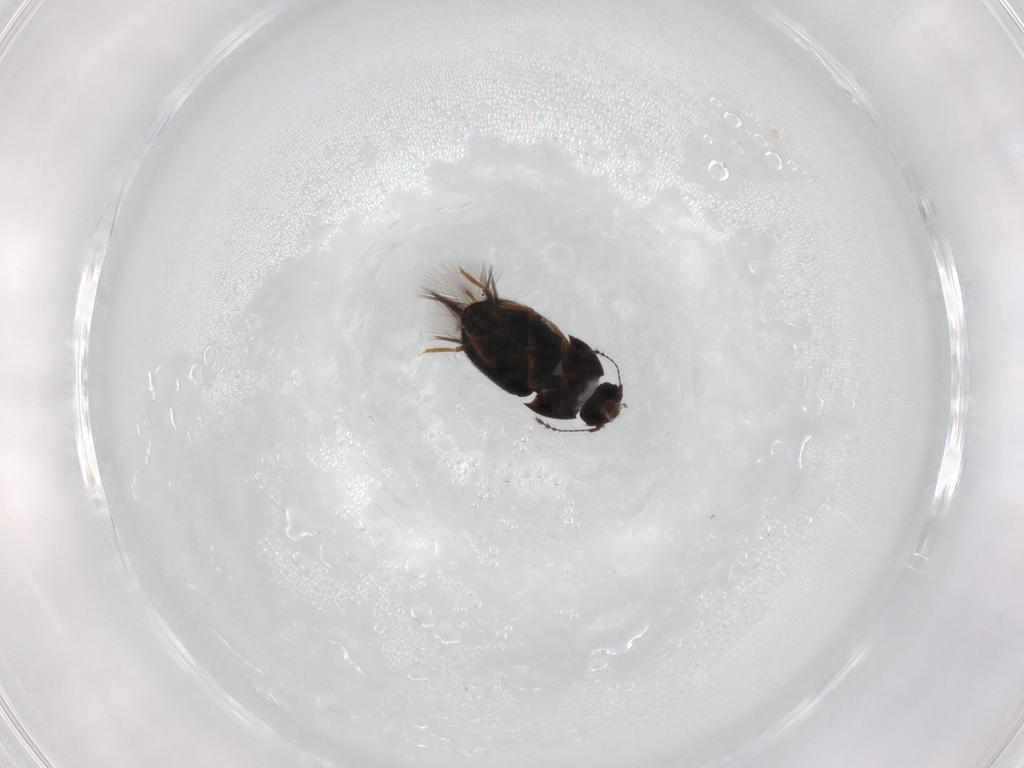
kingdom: Animalia
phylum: Arthropoda
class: Insecta
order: Coleoptera
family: Ptiliidae
